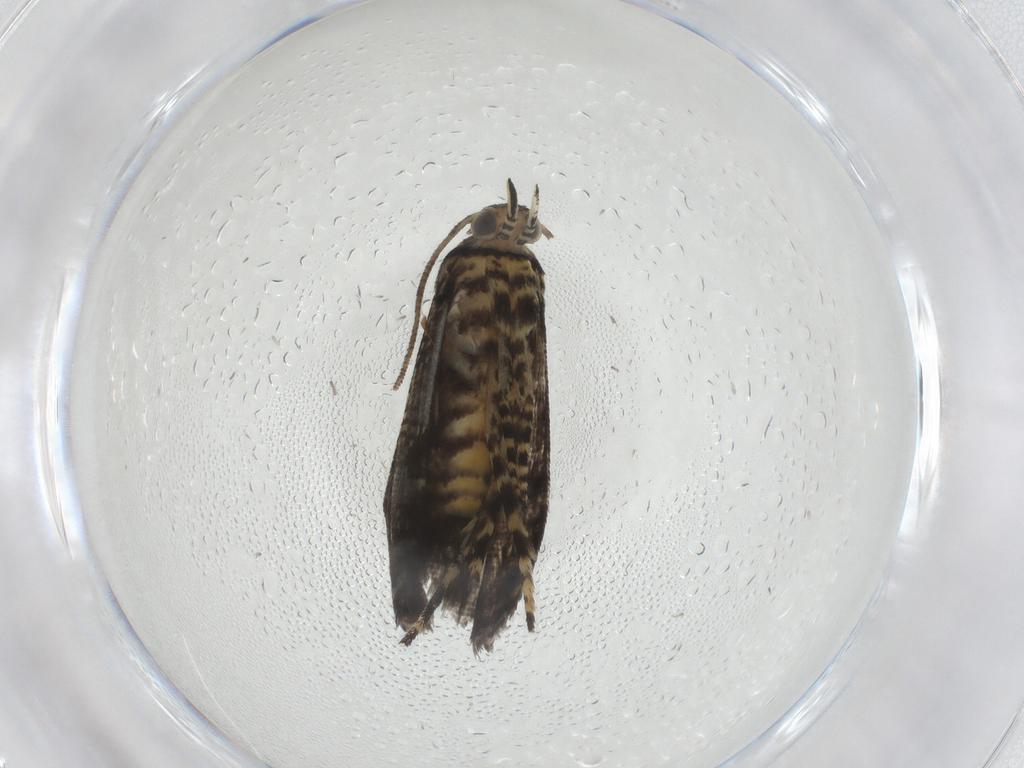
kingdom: Animalia
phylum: Arthropoda
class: Insecta
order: Lepidoptera
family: Geometridae
